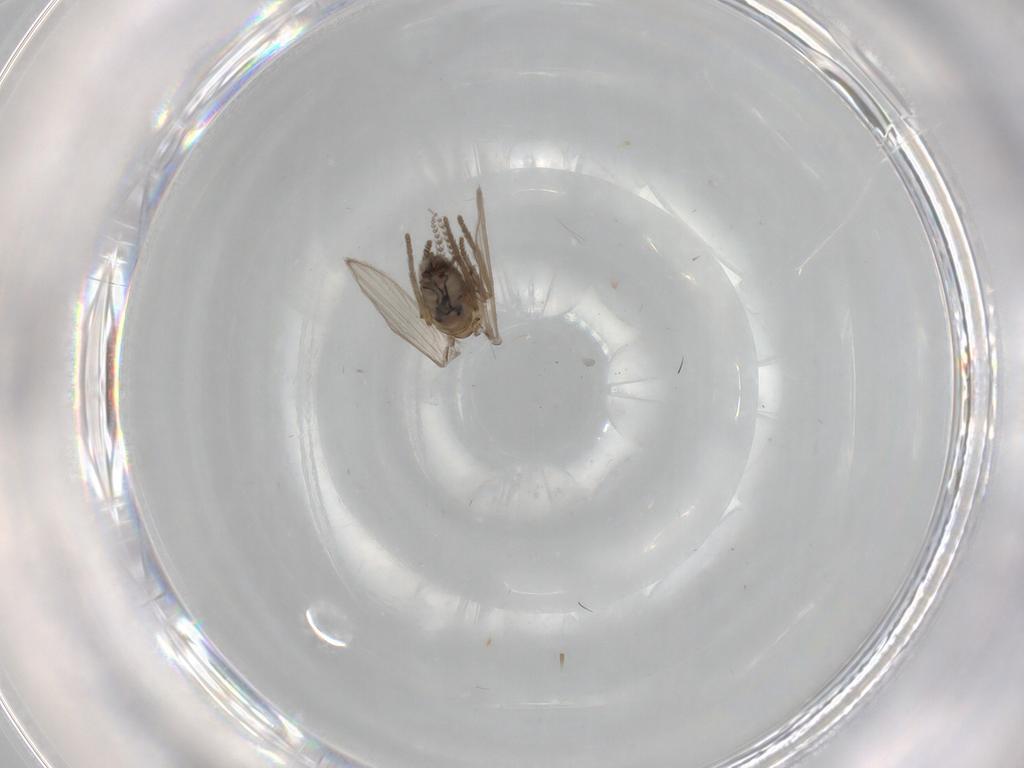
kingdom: Animalia
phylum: Arthropoda
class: Insecta
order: Diptera
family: Psychodidae
